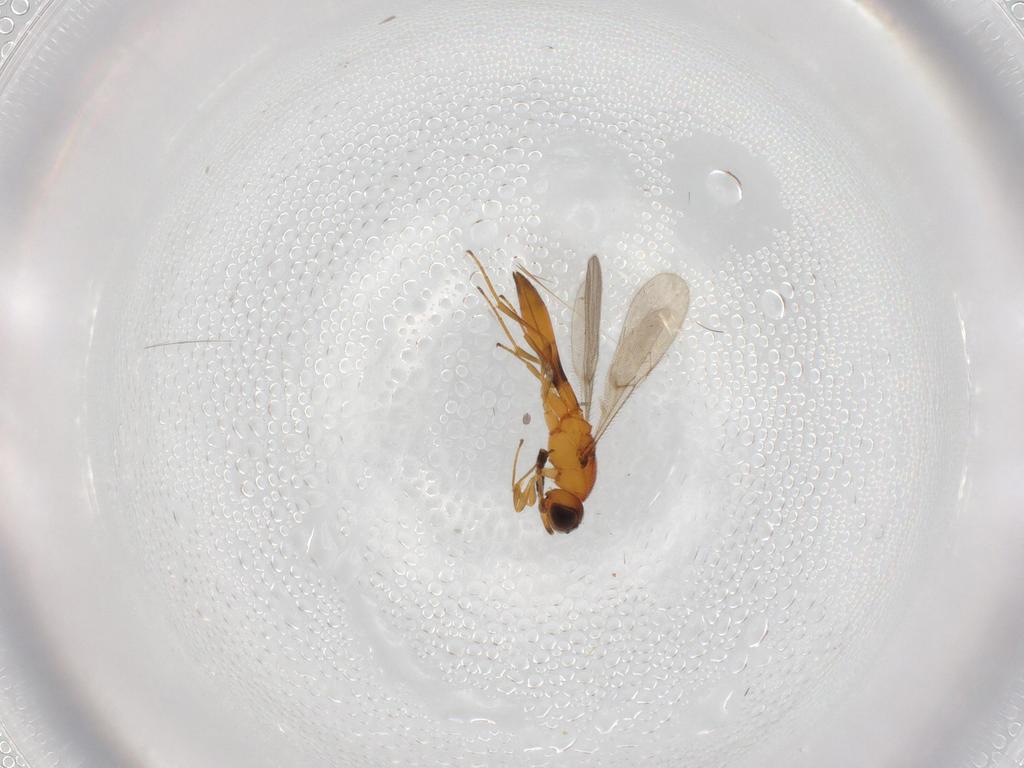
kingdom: Animalia
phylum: Arthropoda
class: Insecta
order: Hymenoptera
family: Scelionidae
